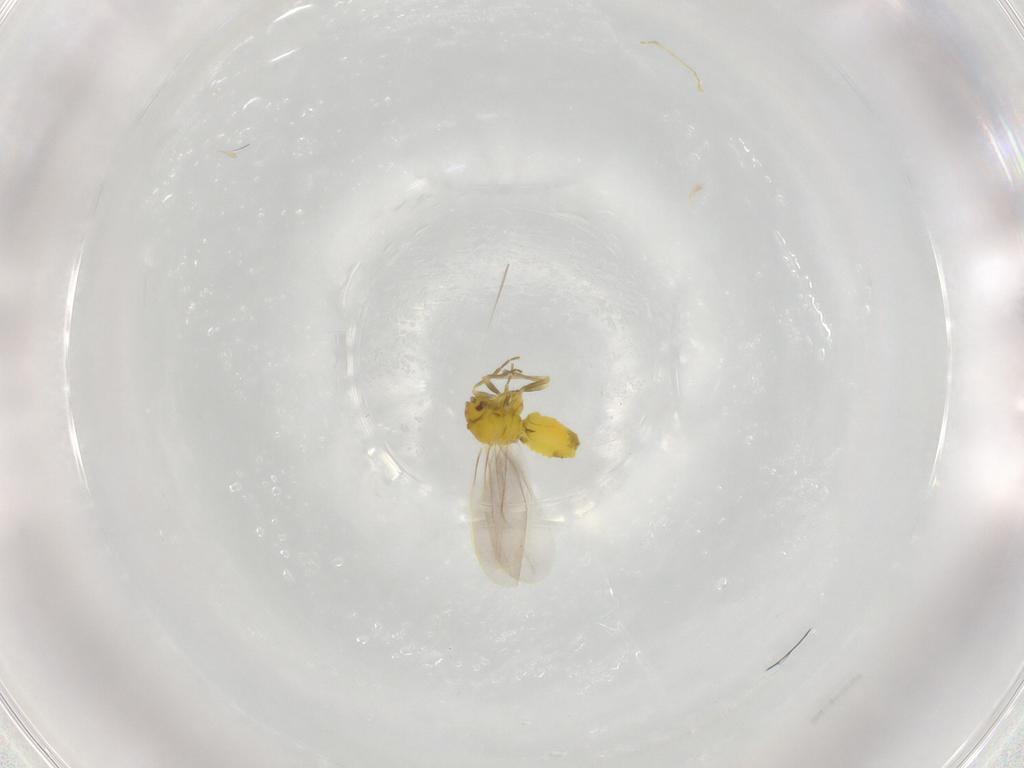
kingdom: Animalia
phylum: Arthropoda
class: Insecta
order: Hemiptera
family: Aleyrodidae
